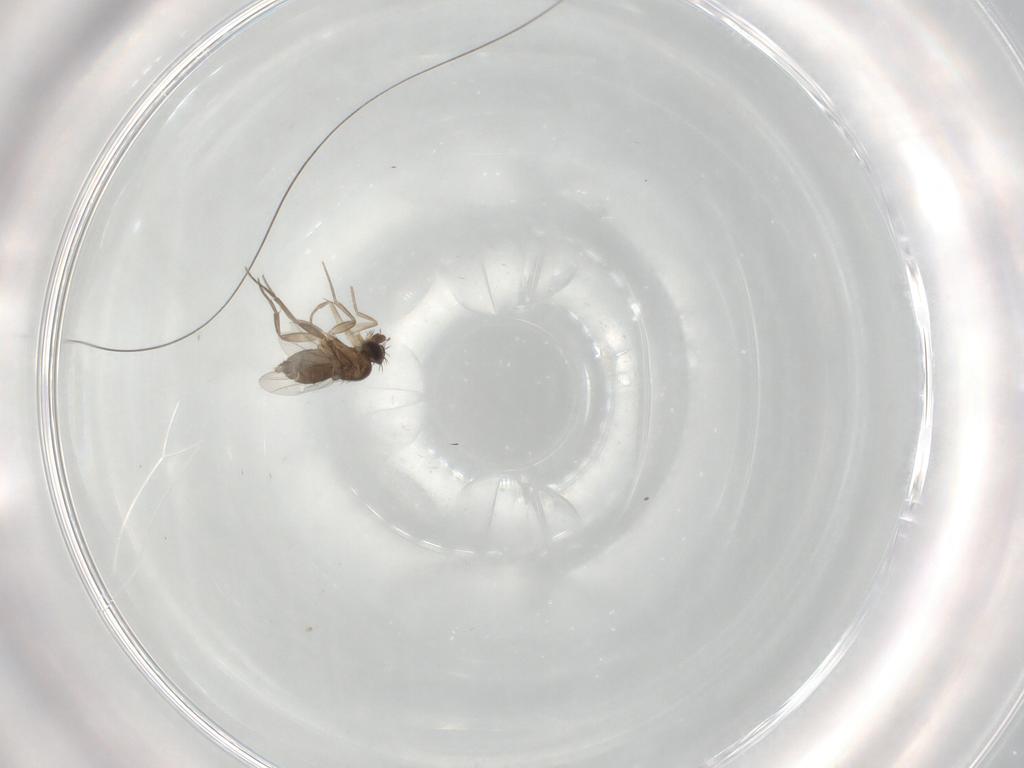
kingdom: Animalia
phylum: Arthropoda
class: Insecta
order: Diptera
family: Phoridae
